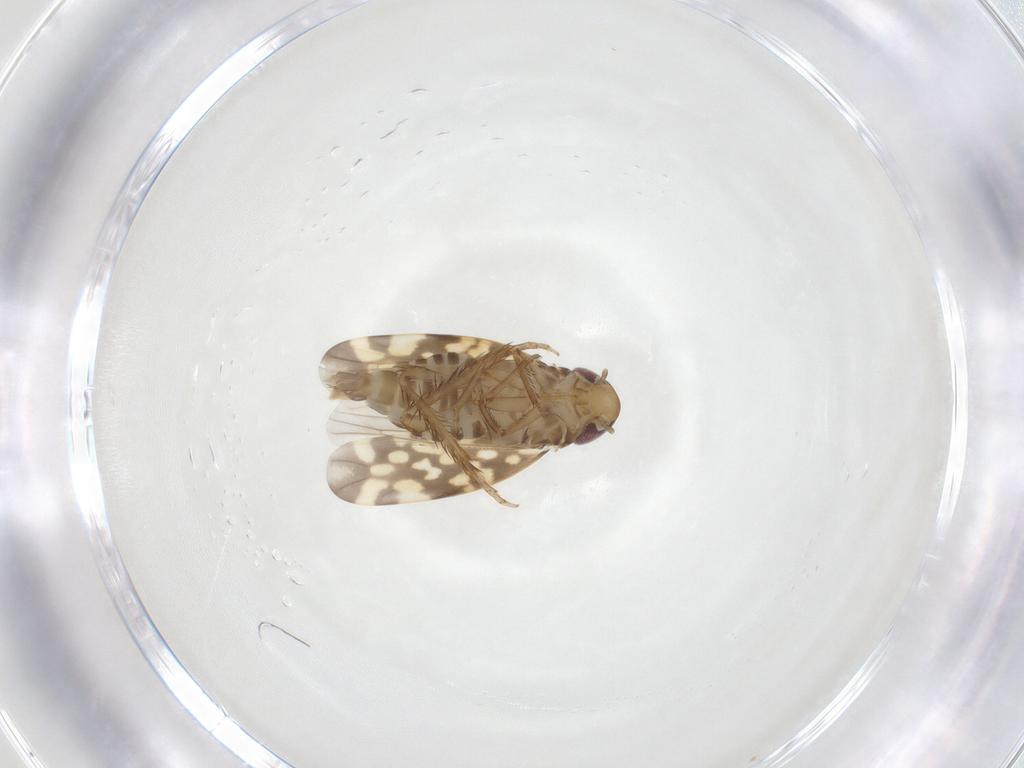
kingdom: Animalia
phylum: Arthropoda
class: Insecta
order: Hemiptera
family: Cicadellidae
